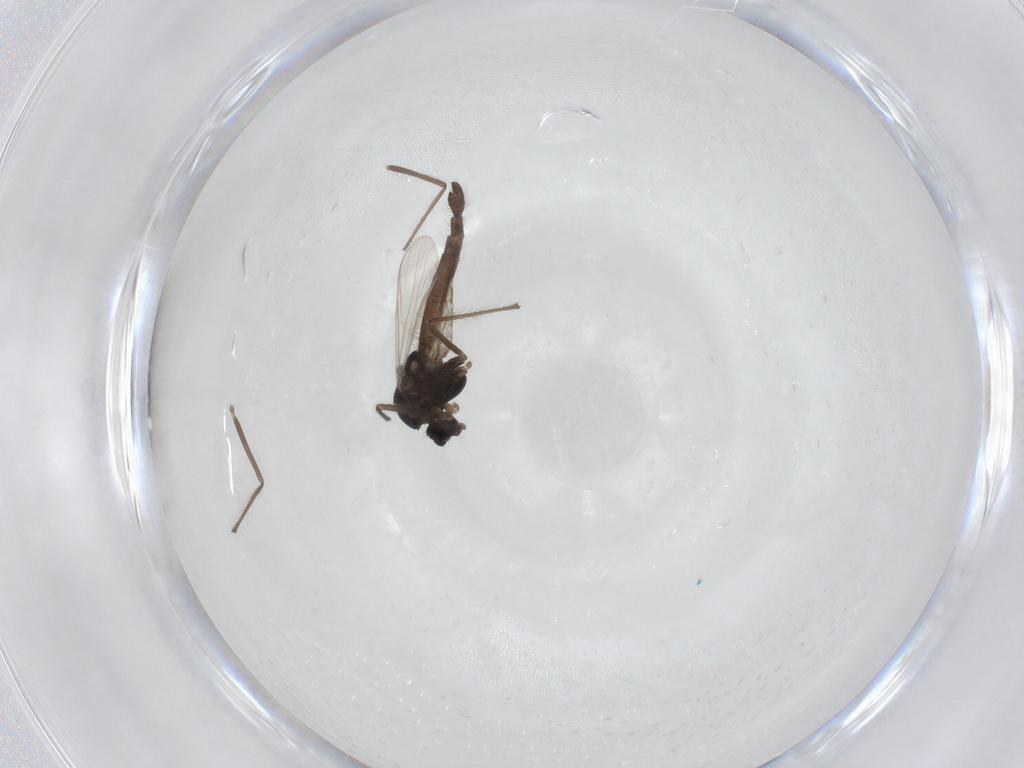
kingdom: Animalia
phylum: Arthropoda
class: Insecta
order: Diptera
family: Chironomidae
